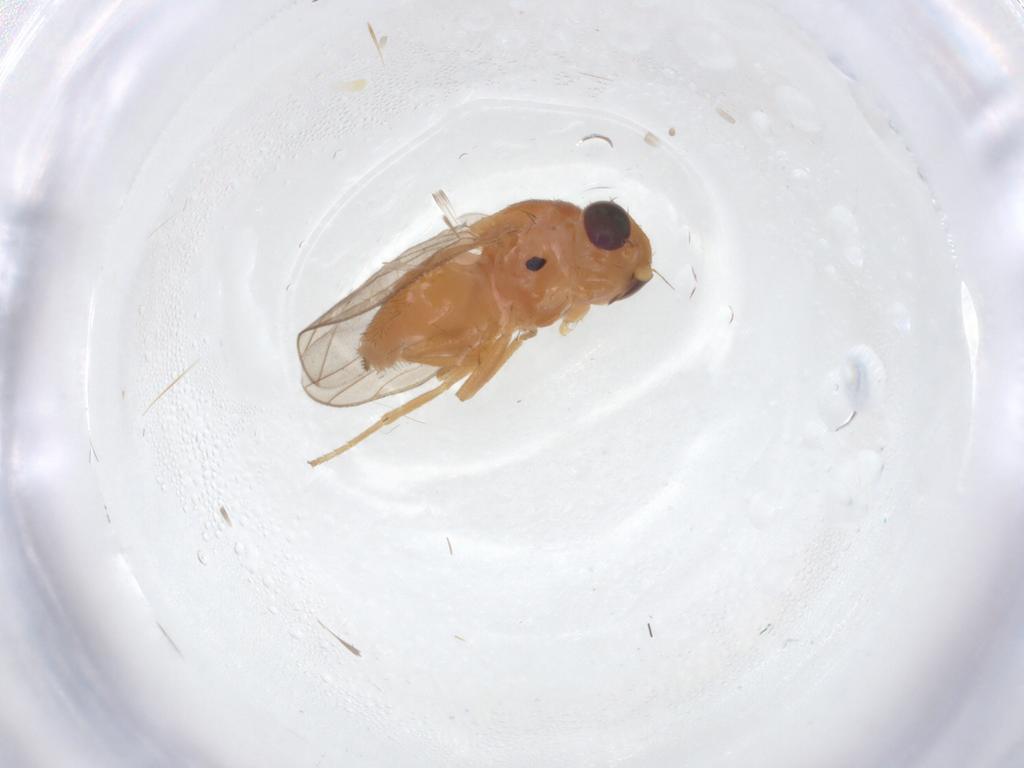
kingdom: Animalia
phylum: Arthropoda
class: Insecta
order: Diptera
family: Chloropidae
